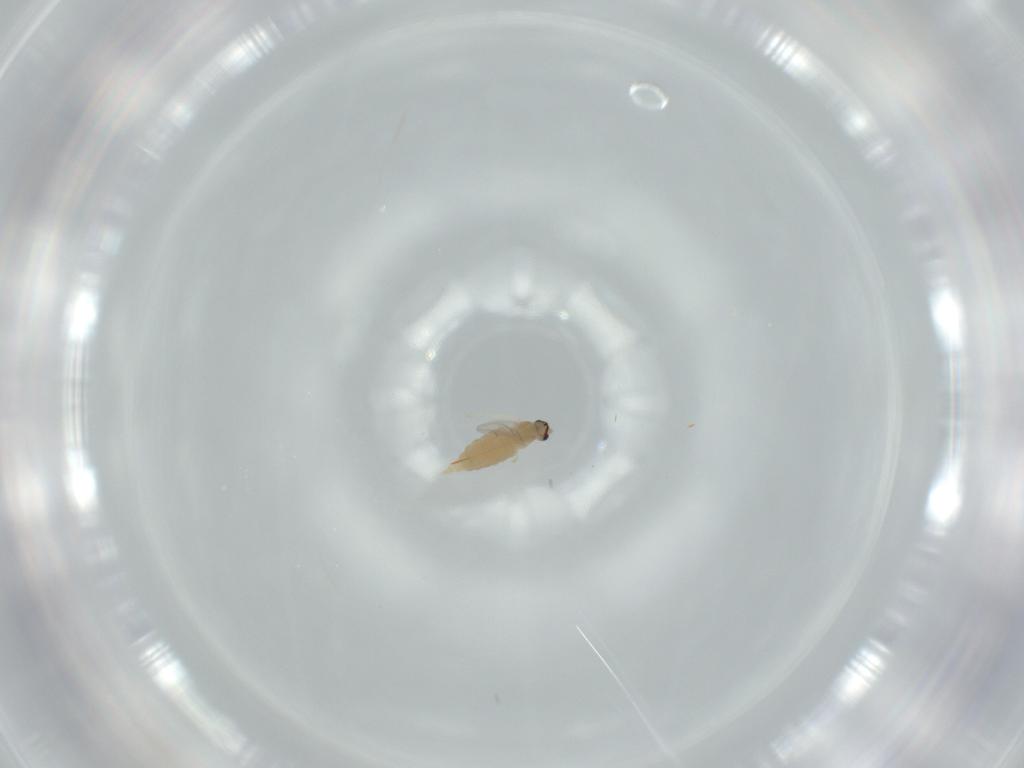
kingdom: Animalia
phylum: Arthropoda
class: Insecta
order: Diptera
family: Cecidomyiidae
